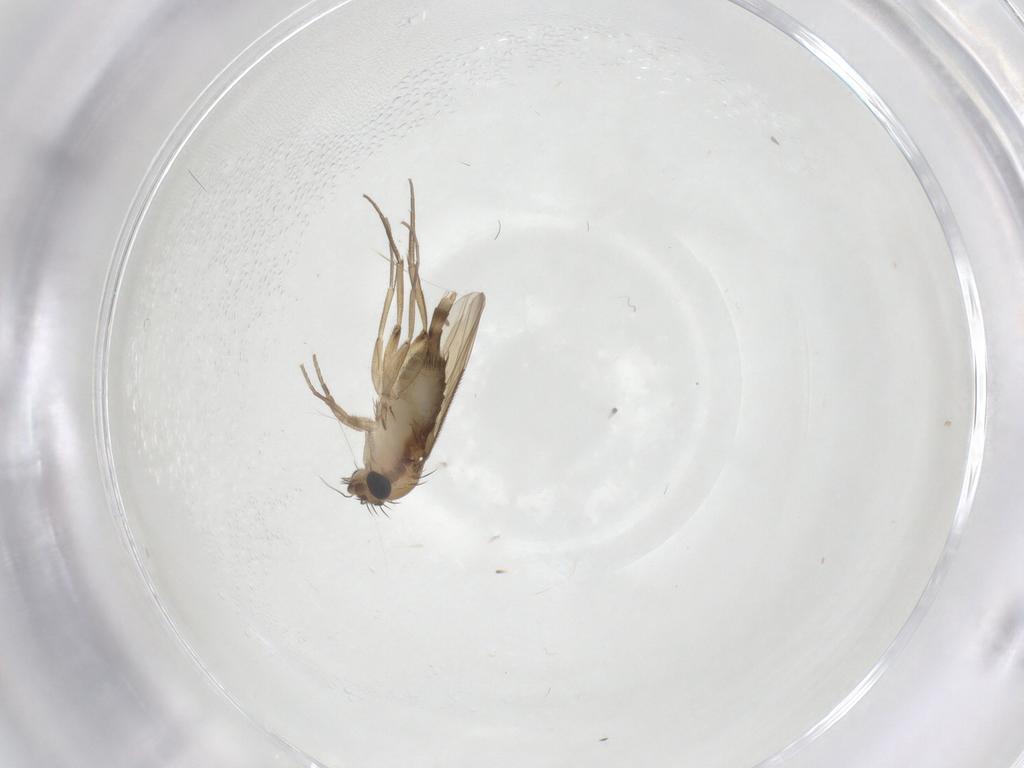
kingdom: Animalia
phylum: Arthropoda
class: Insecta
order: Diptera
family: Phoridae
